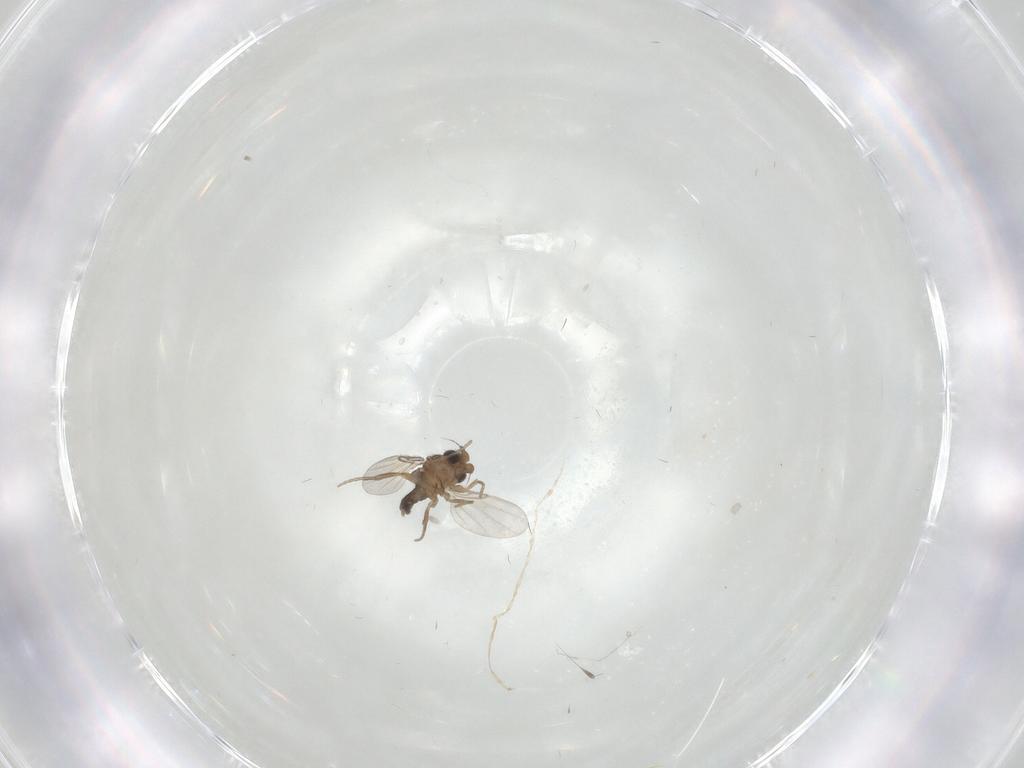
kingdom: Animalia
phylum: Arthropoda
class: Insecta
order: Diptera
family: Phoridae
